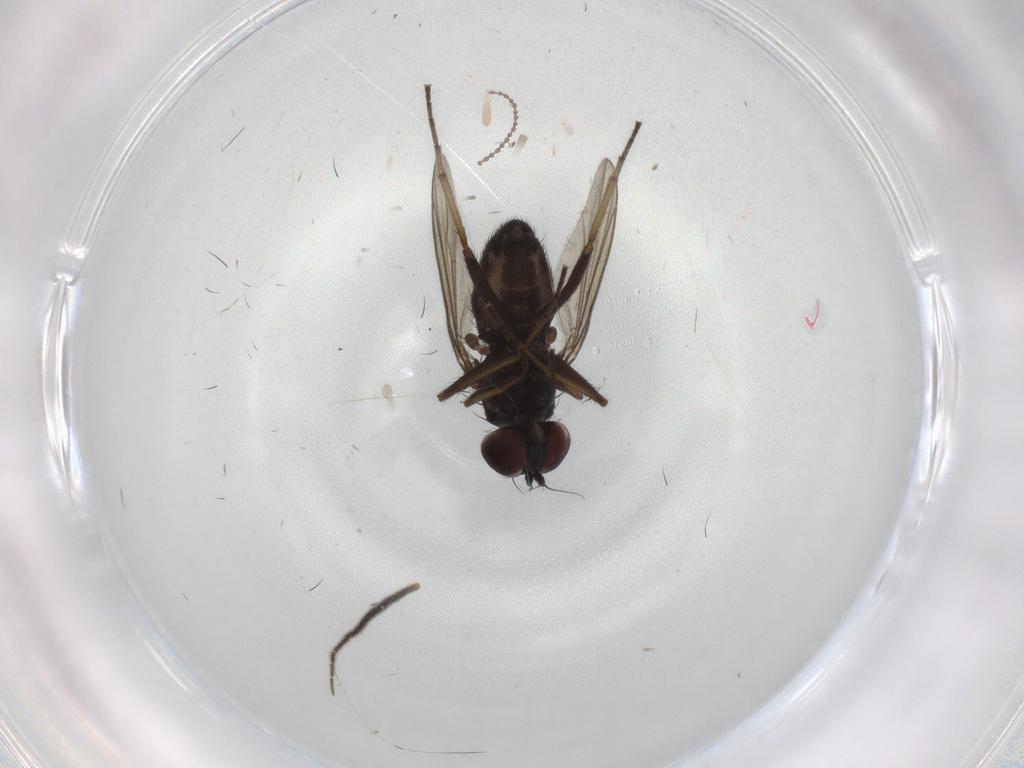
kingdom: Animalia
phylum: Arthropoda
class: Insecta
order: Diptera
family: Dolichopodidae
